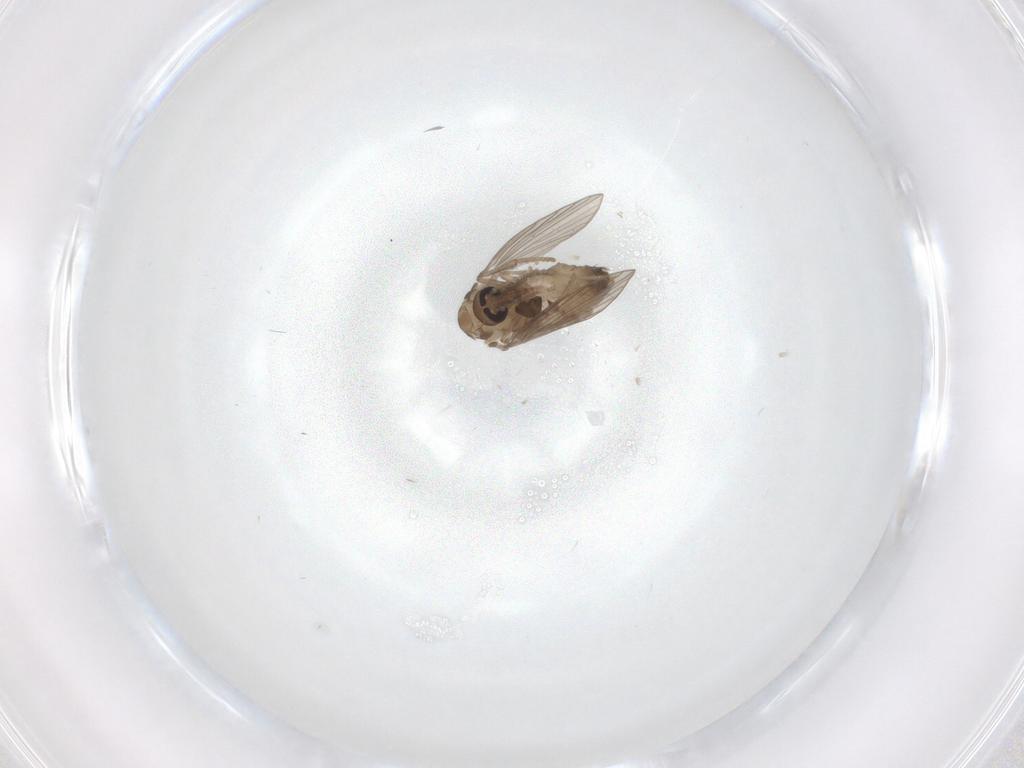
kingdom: Animalia
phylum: Arthropoda
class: Insecta
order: Diptera
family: Psychodidae
